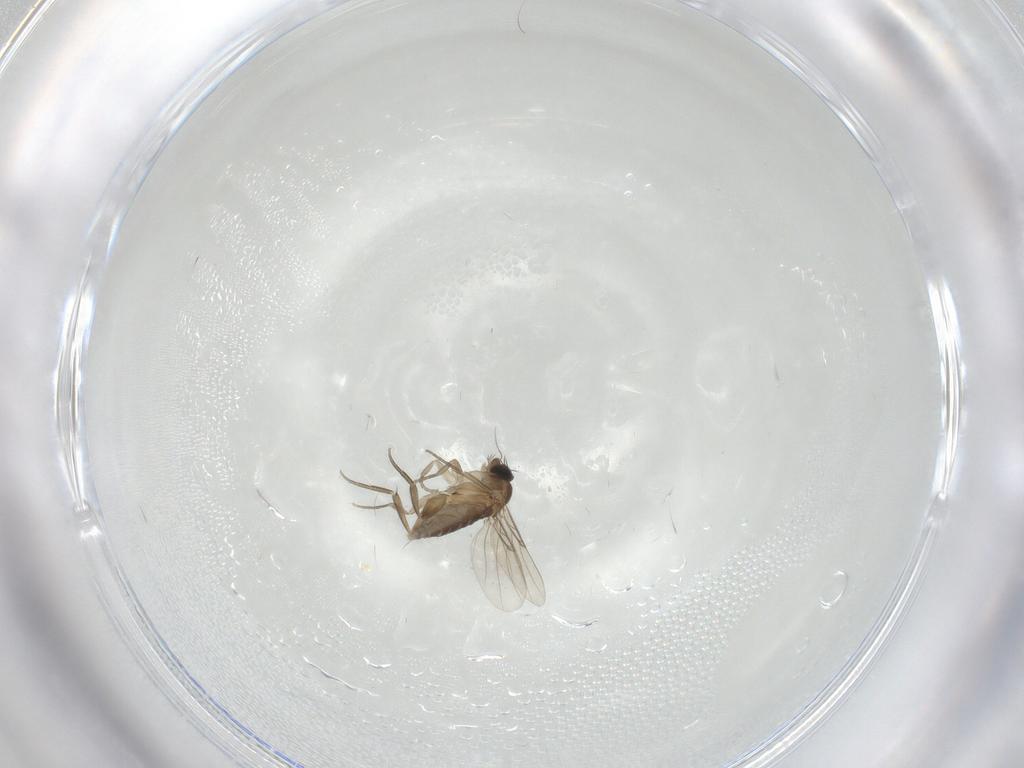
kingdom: Animalia
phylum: Arthropoda
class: Insecta
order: Diptera
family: Phoridae
